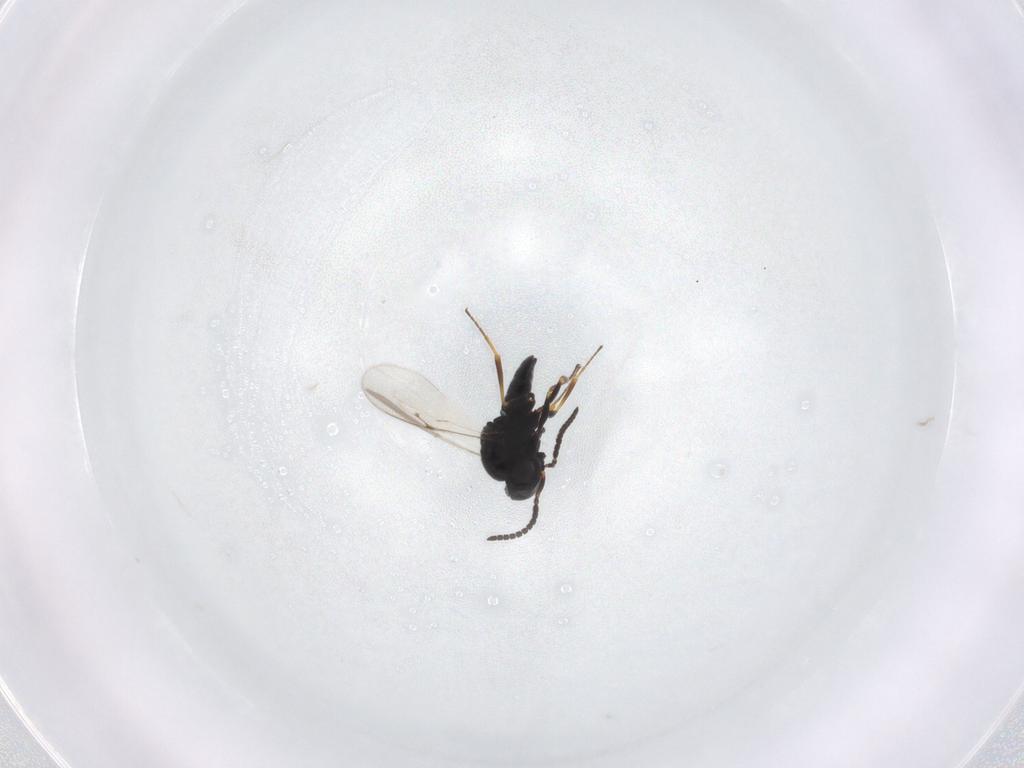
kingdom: Animalia
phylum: Arthropoda
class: Insecta
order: Hymenoptera
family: Scelionidae
